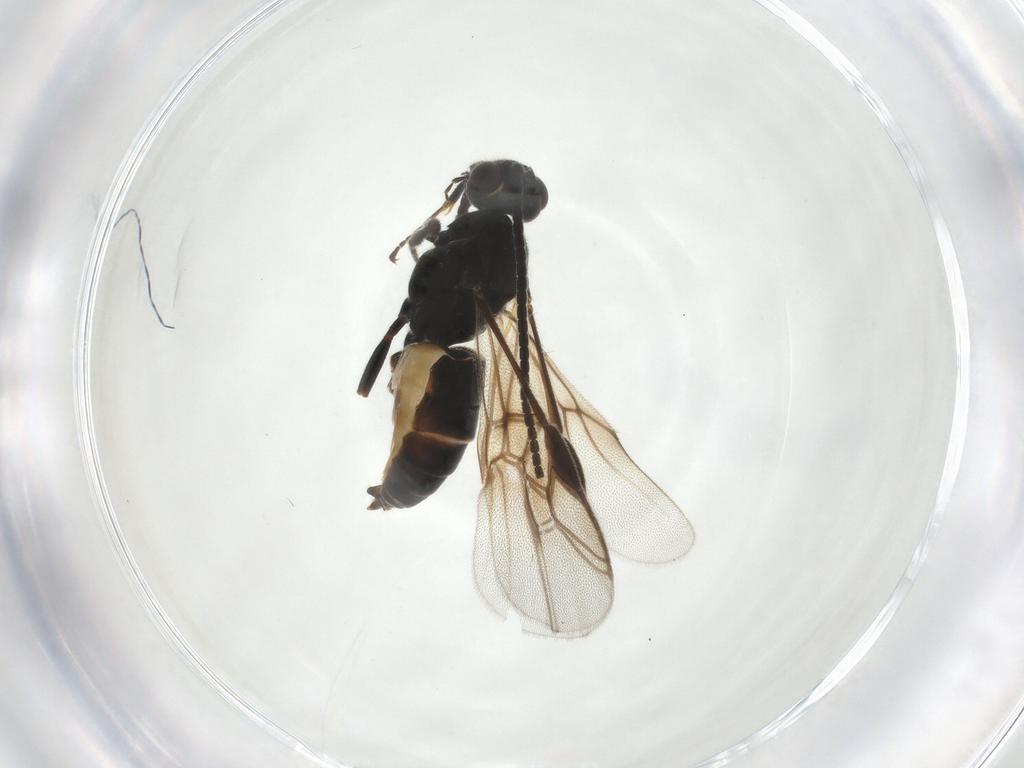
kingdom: Animalia
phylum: Arthropoda
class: Insecta
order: Hymenoptera
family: Braconidae
